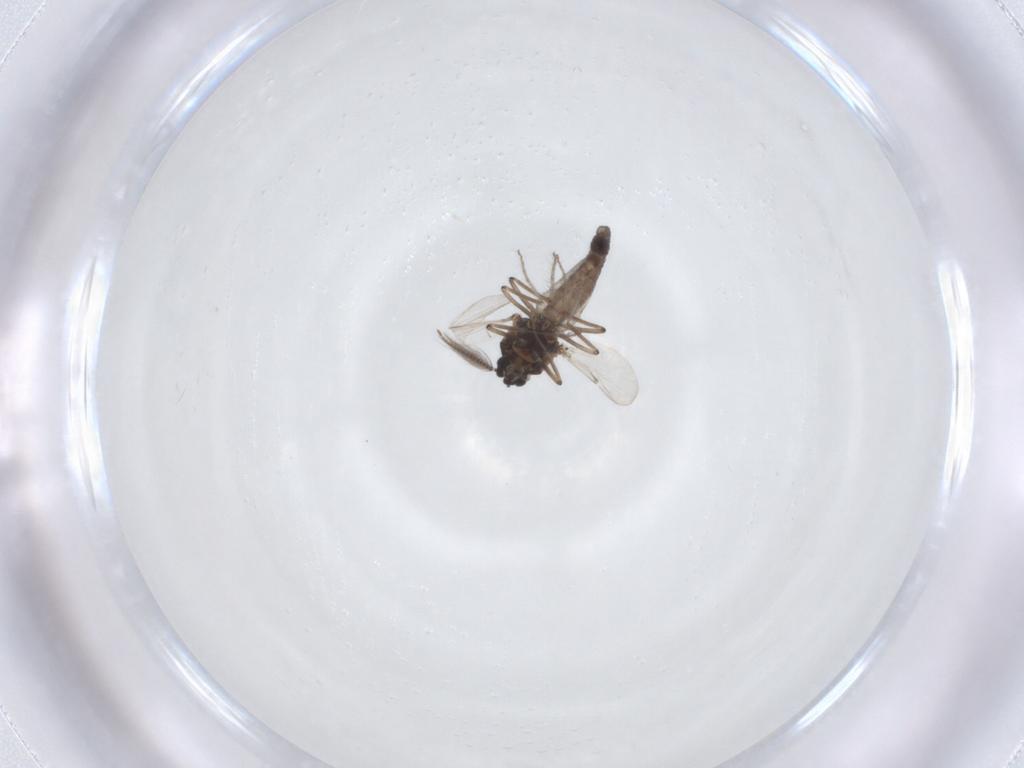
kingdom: Animalia
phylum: Arthropoda
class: Insecta
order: Diptera
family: Ceratopogonidae
